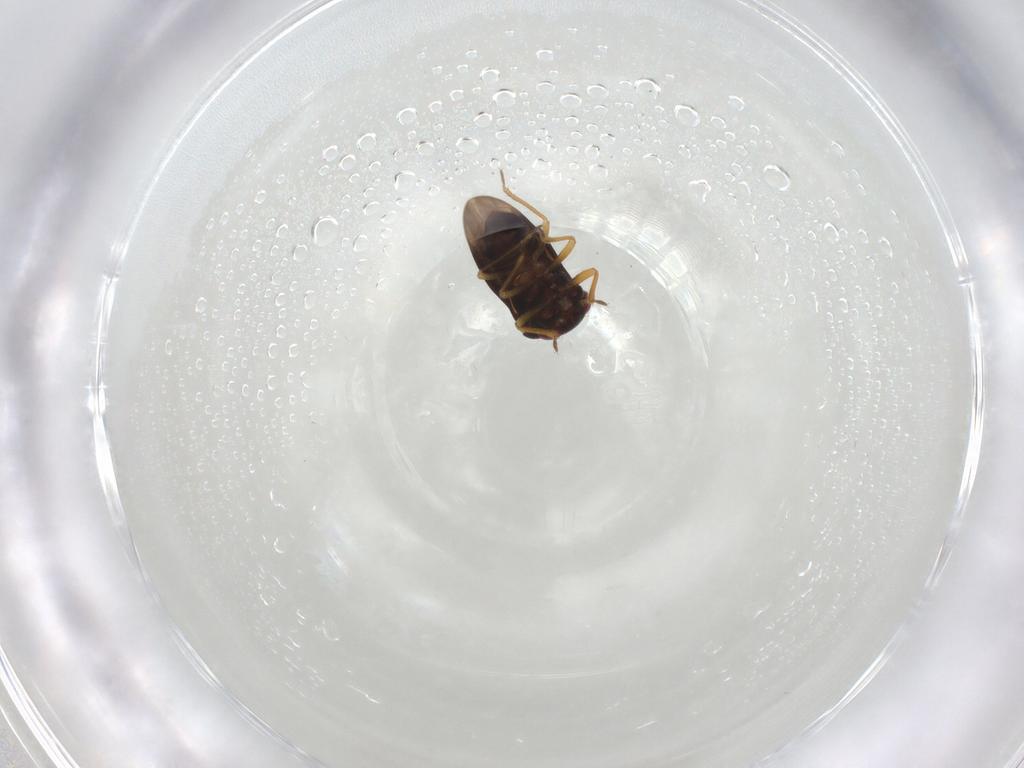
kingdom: Animalia
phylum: Arthropoda
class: Insecta
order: Hemiptera
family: Schizopteridae
